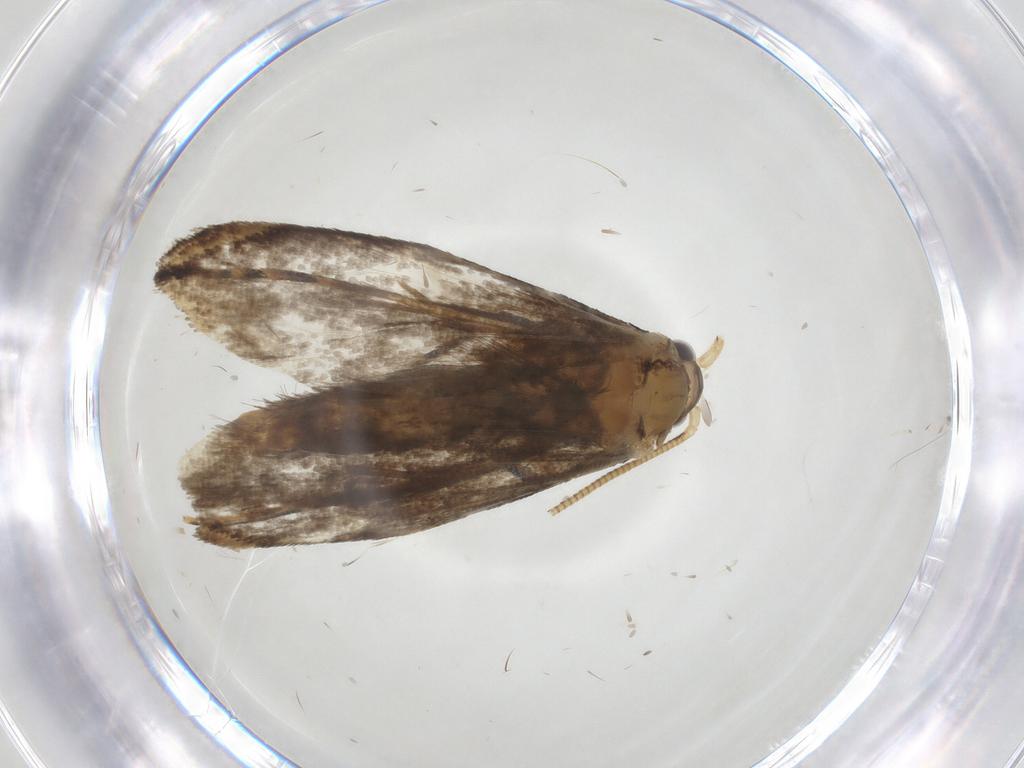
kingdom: Animalia
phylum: Arthropoda
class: Insecta
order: Lepidoptera
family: Tineidae
